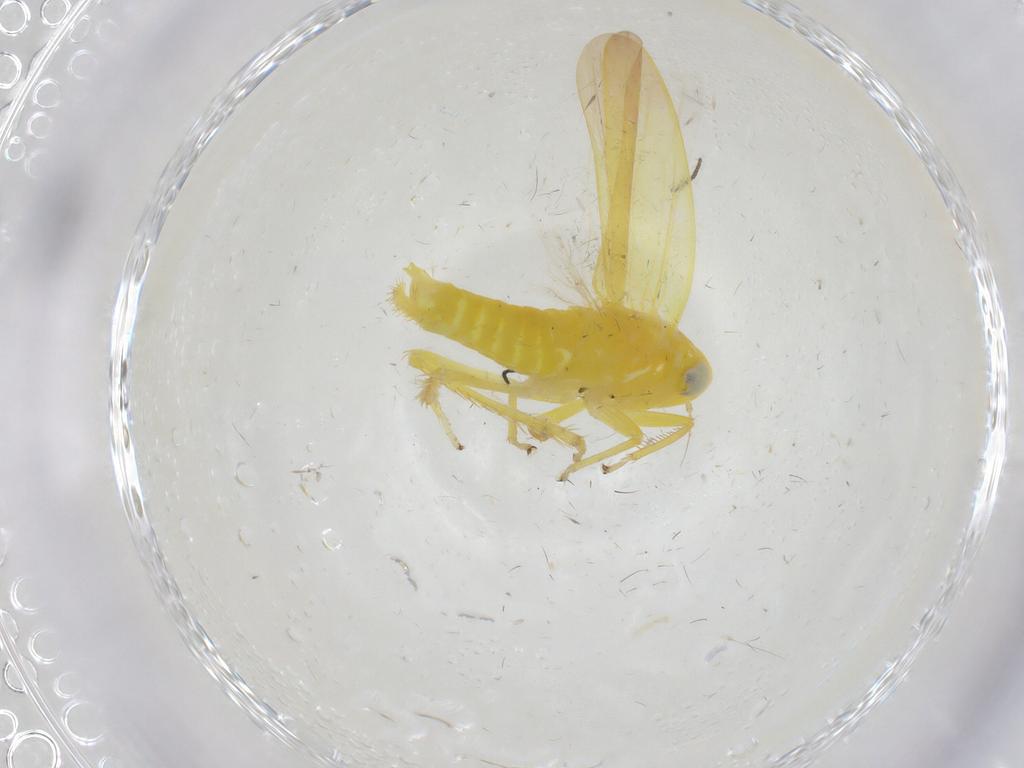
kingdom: Animalia
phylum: Arthropoda
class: Insecta
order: Hemiptera
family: Cicadellidae
